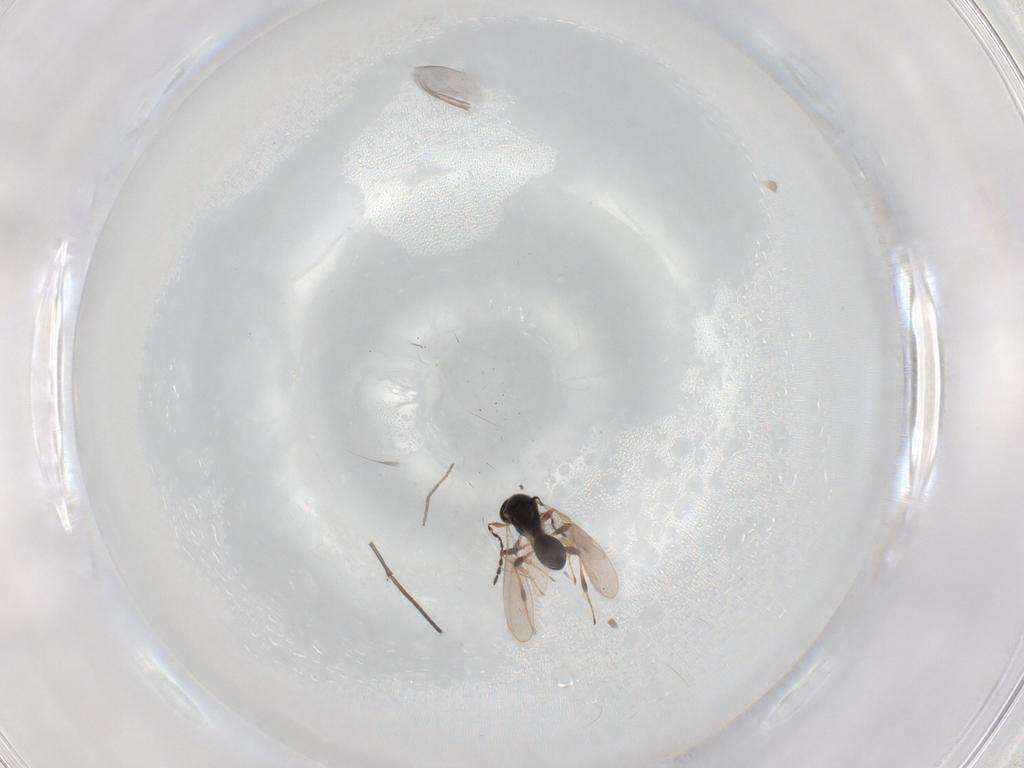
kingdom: Animalia
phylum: Arthropoda
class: Insecta
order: Hymenoptera
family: Platygastridae
